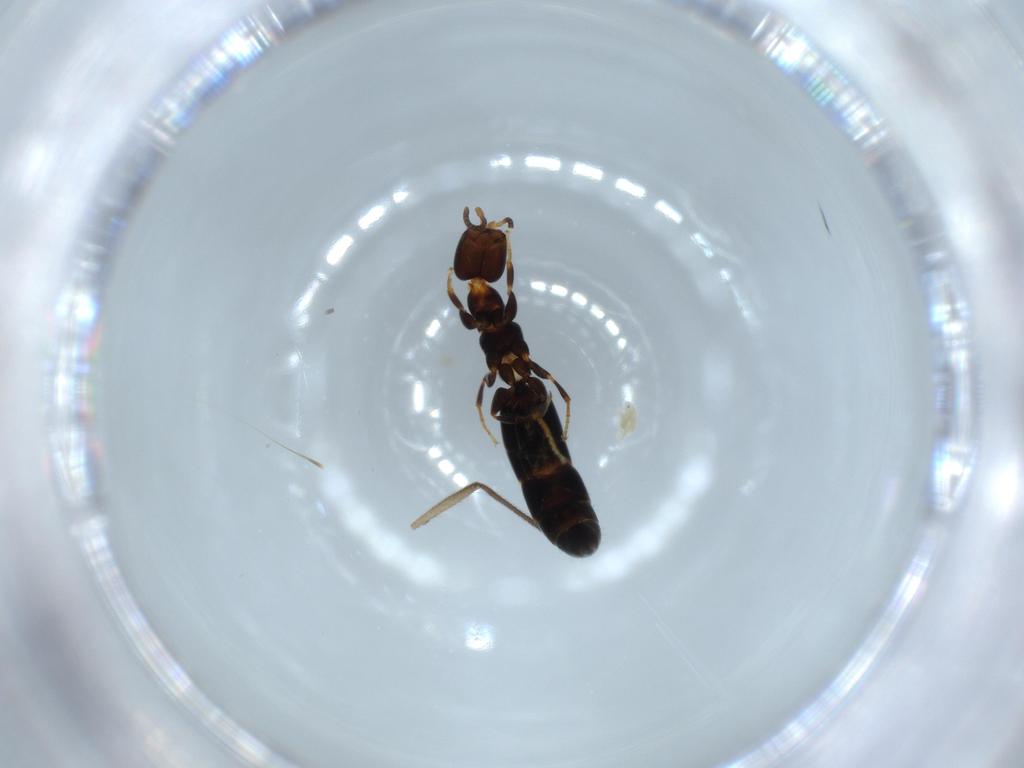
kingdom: Animalia
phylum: Arthropoda
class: Insecta
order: Hymenoptera
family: Bethylidae
